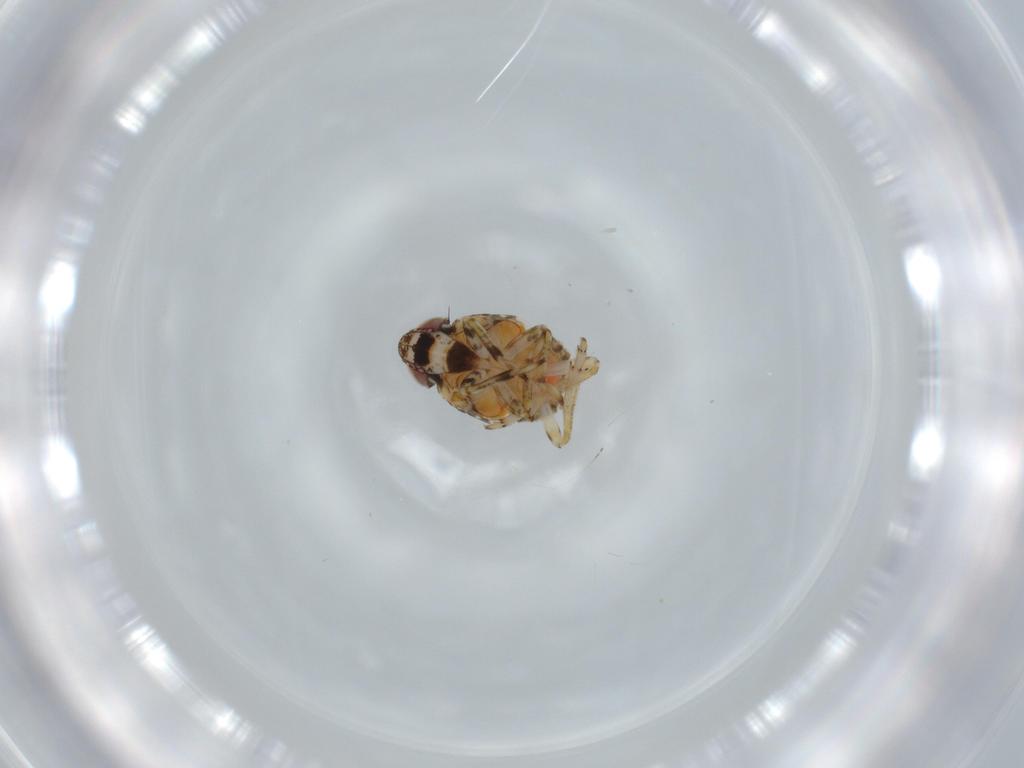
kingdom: Animalia
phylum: Arthropoda
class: Insecta
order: Hemiptera
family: Issidae
